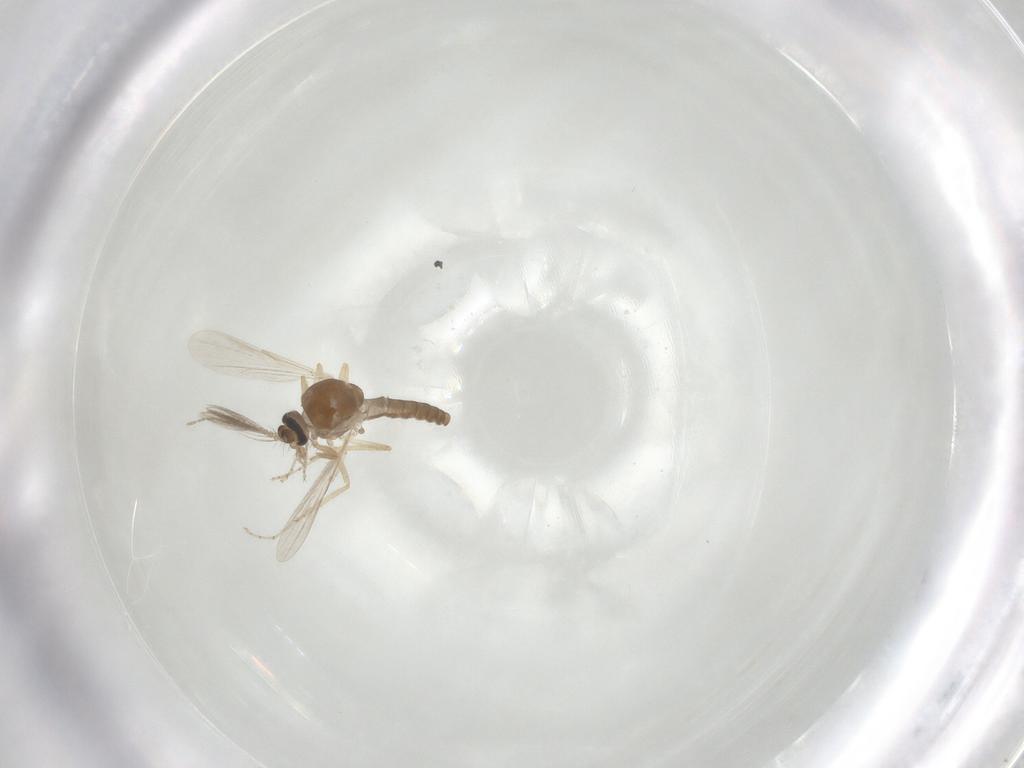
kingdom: Animalia
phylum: Arthropoda
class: Insecta
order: Diptera
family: Ceratopogonidae
